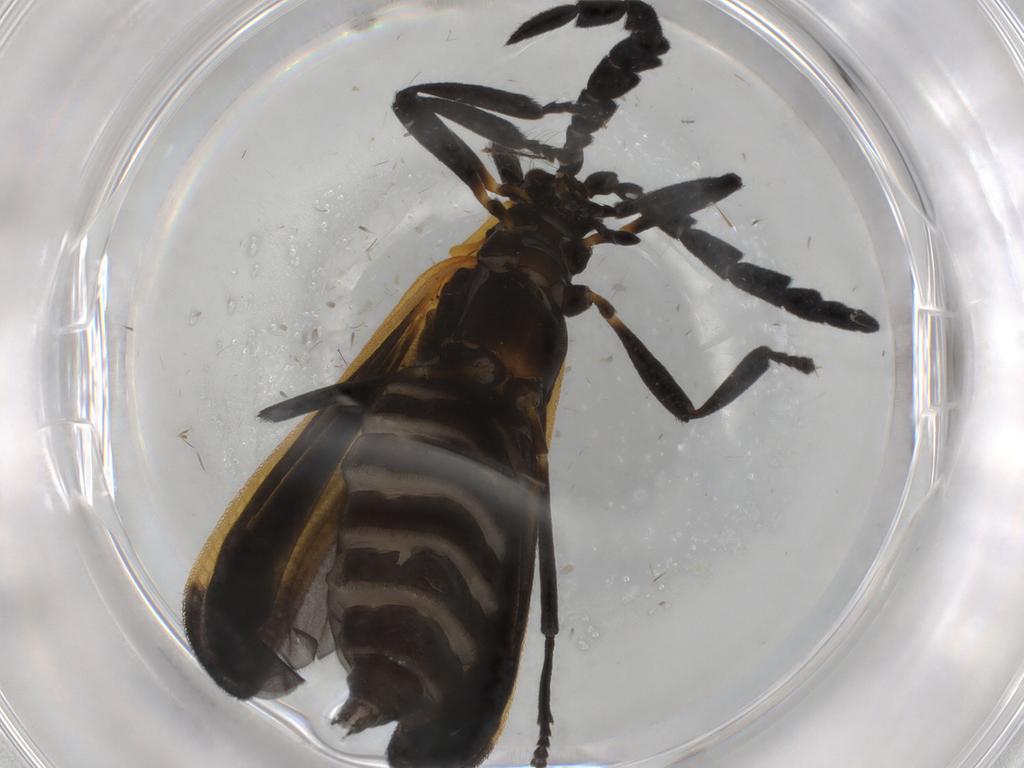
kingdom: Animalia
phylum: Arthropoda
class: Insecta
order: Coleoptera
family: Lycidae
